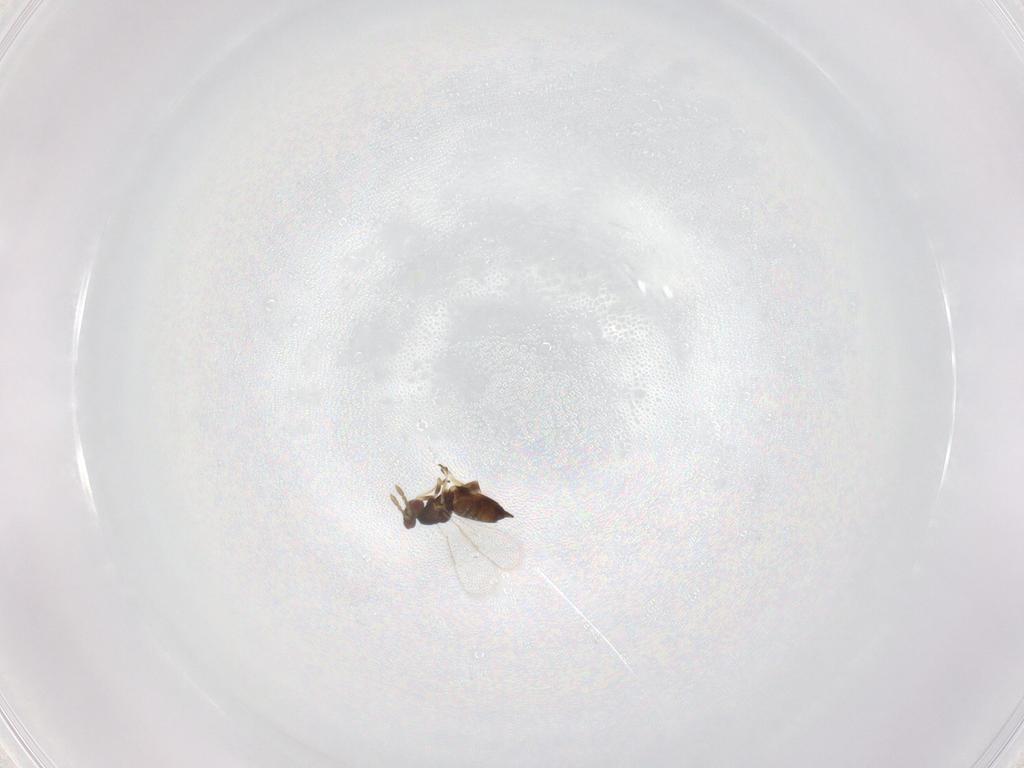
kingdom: Animalia
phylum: Arthropoda
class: Insecta
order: Hymenoptera
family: Eulophidae
